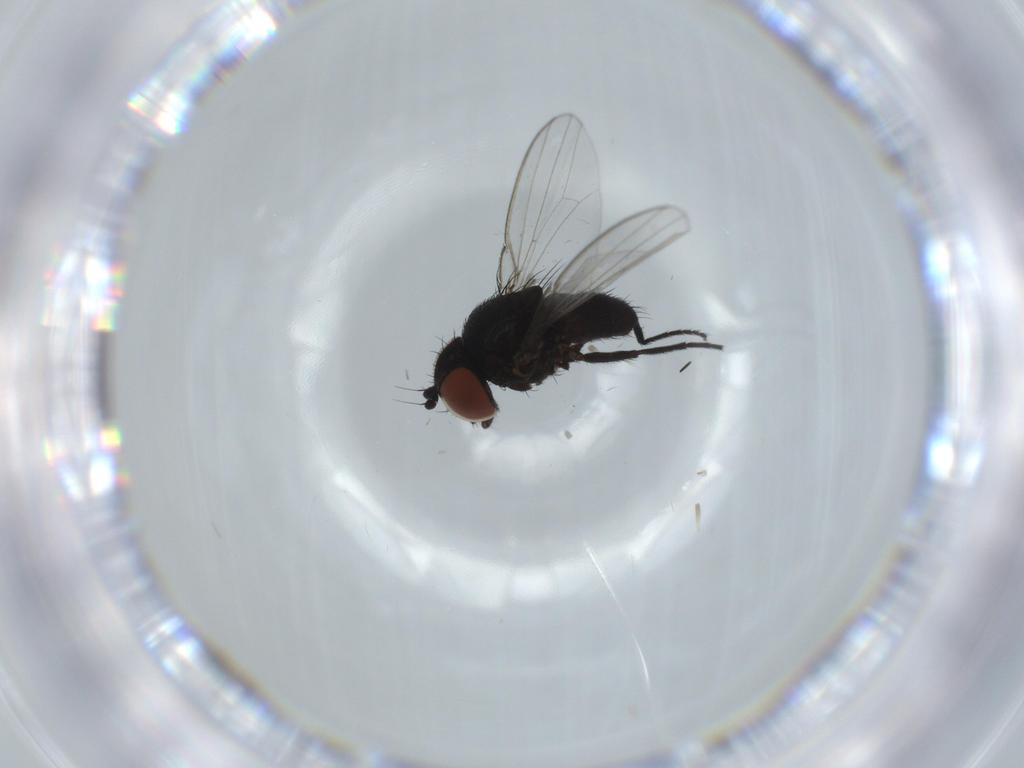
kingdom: Animalia
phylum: Arthropoda
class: Insecta
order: Diptera
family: Milichiidae
